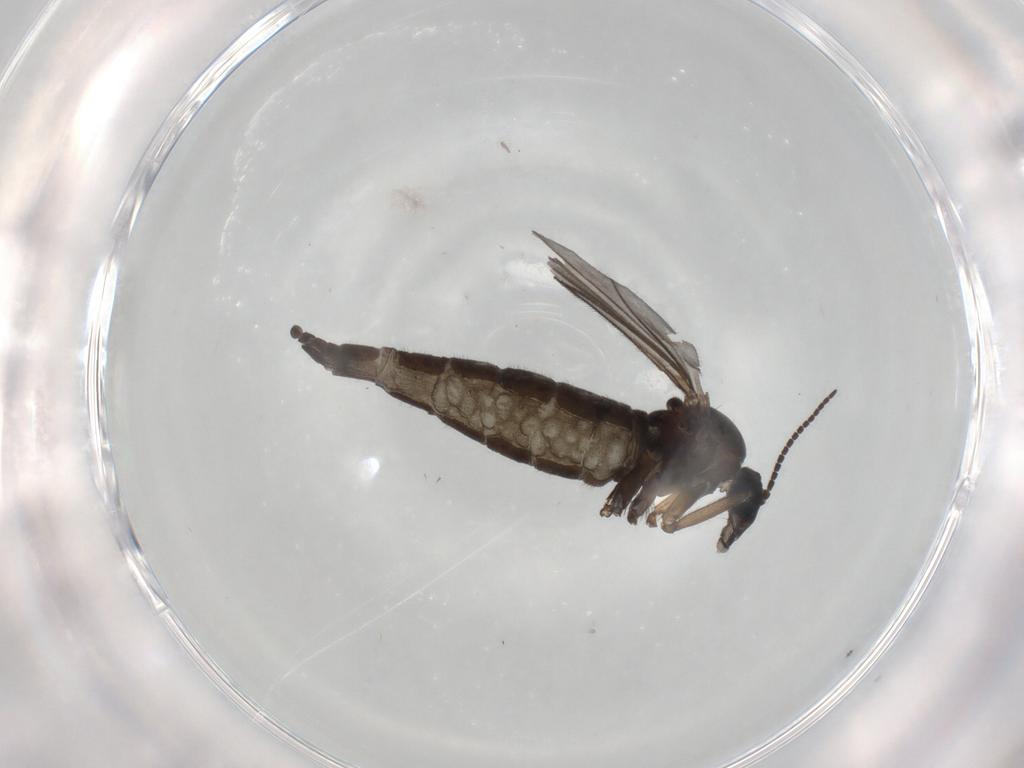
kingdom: Animalia
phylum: Arthropoda
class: Insecta
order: Diptera
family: Sciaridae
